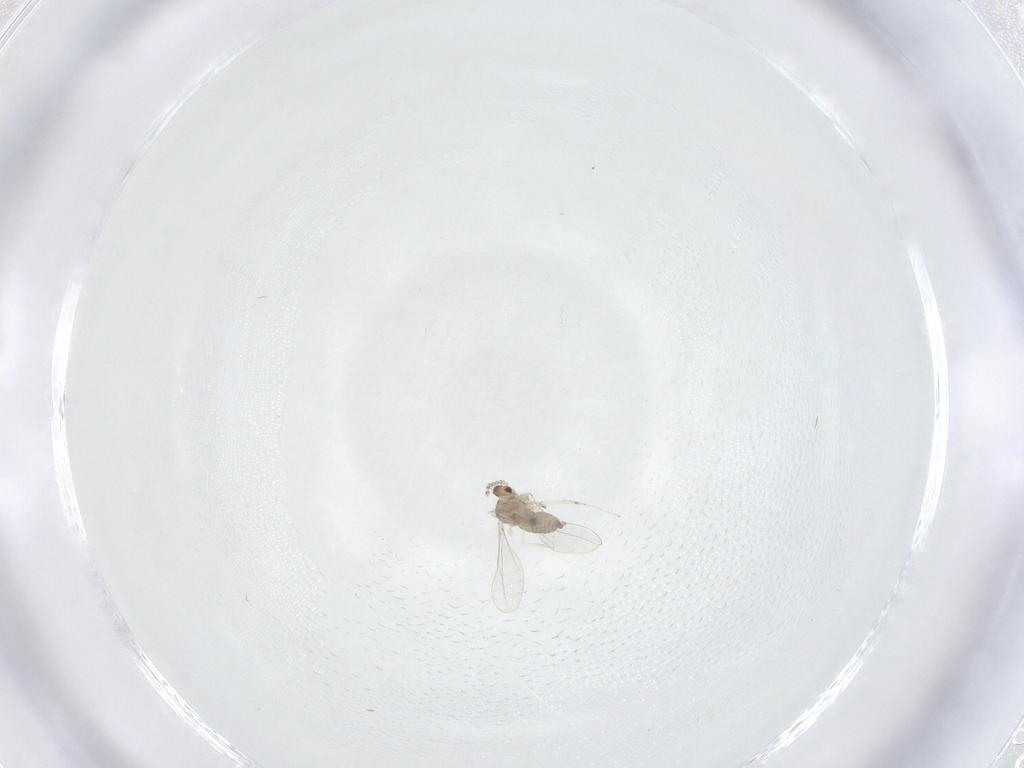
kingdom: Animalia
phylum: Arthropoda
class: Insecta
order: Diptera
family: Cecidomyiidae
